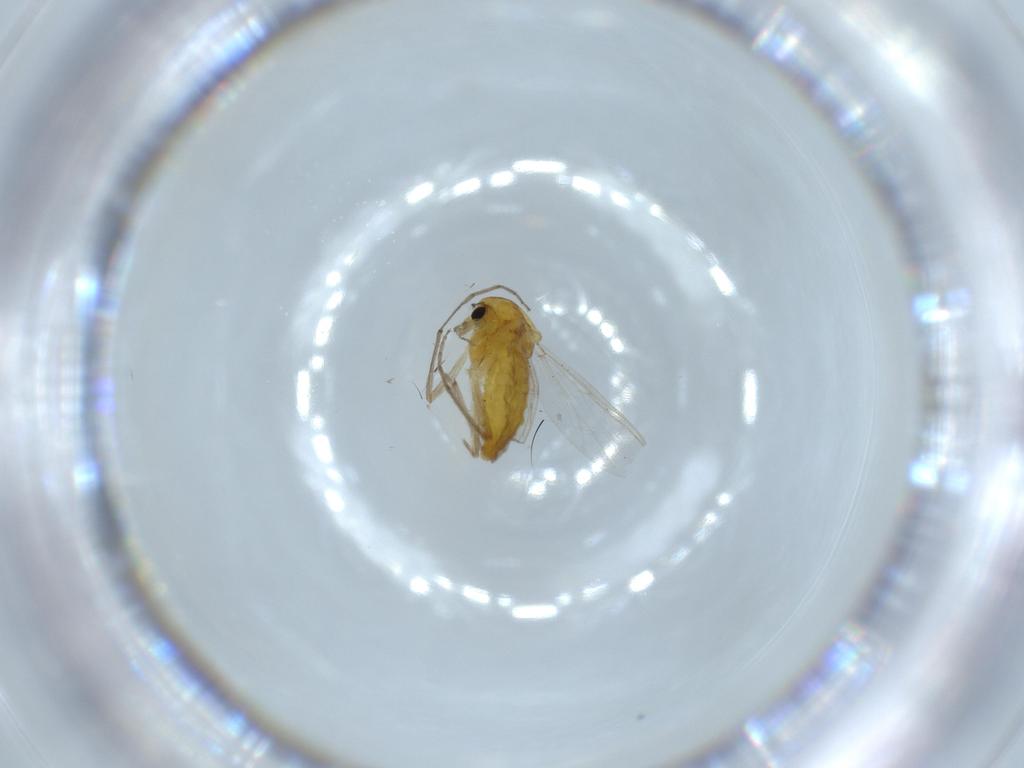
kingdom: Animalia
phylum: Arthropoda
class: Insecta
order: Diptera
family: Chironomidae
